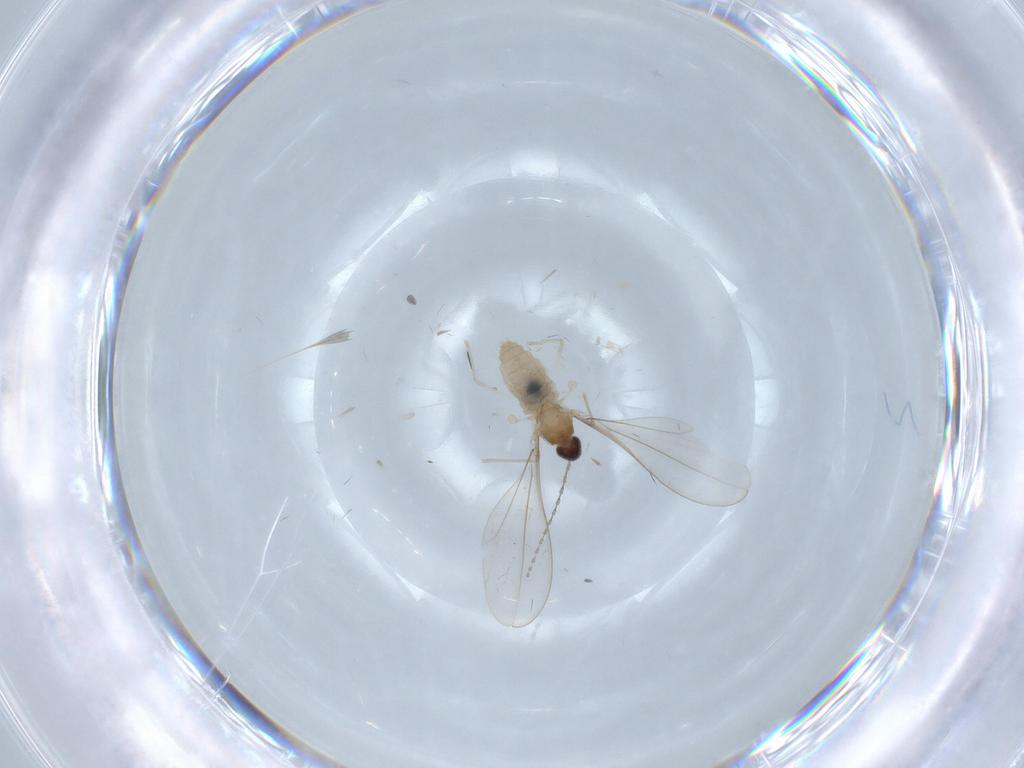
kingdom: Animalia
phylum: Arthropoda
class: Insecta
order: Diptera
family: Cecidomyiidae
